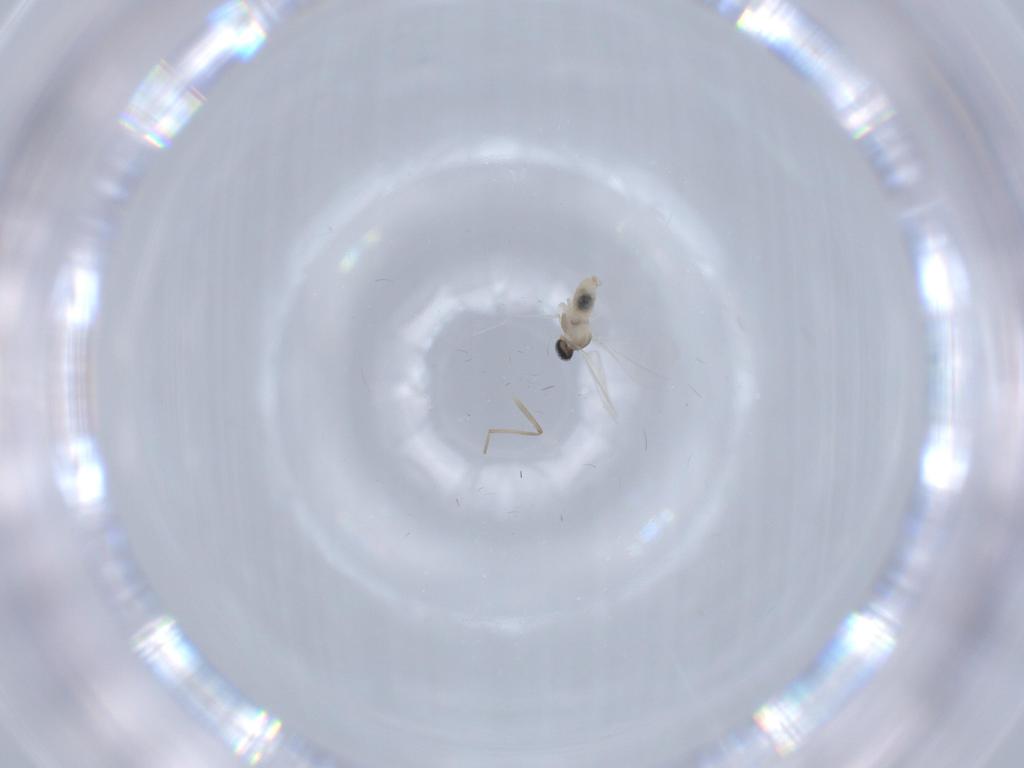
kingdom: Animalia
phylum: Arthropoda
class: Insecta
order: Diptera
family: Cecidomyiidae
